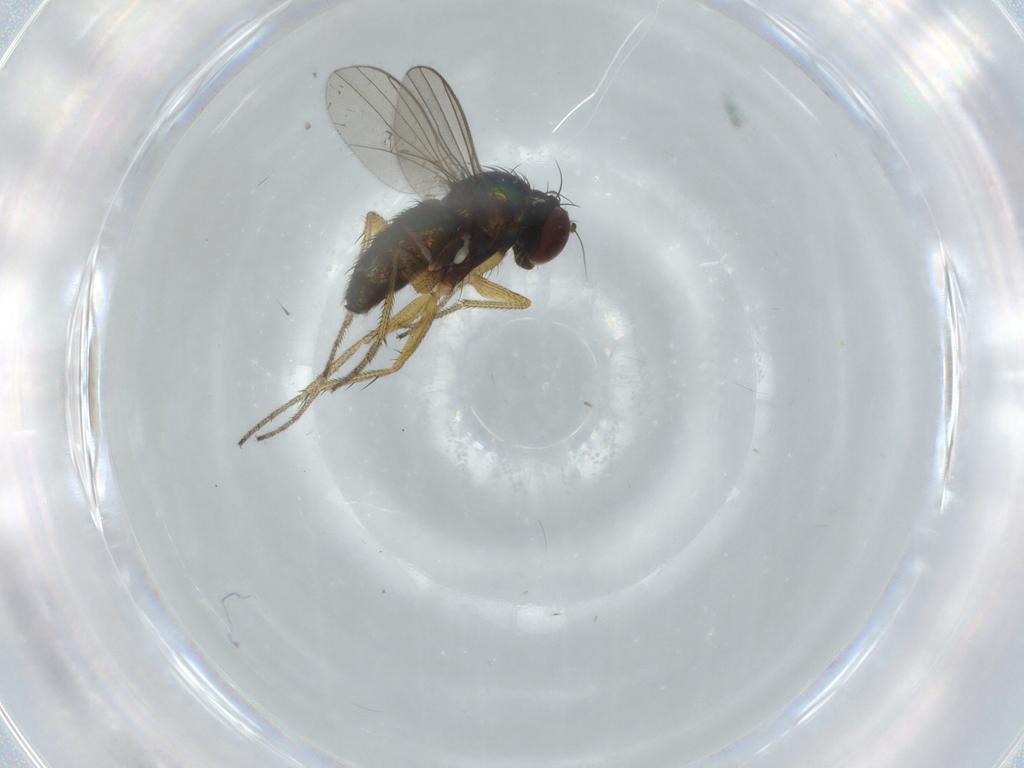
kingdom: Animalia
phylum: Arthropoda
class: Insecta
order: Diptera
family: Dolichopodidae
